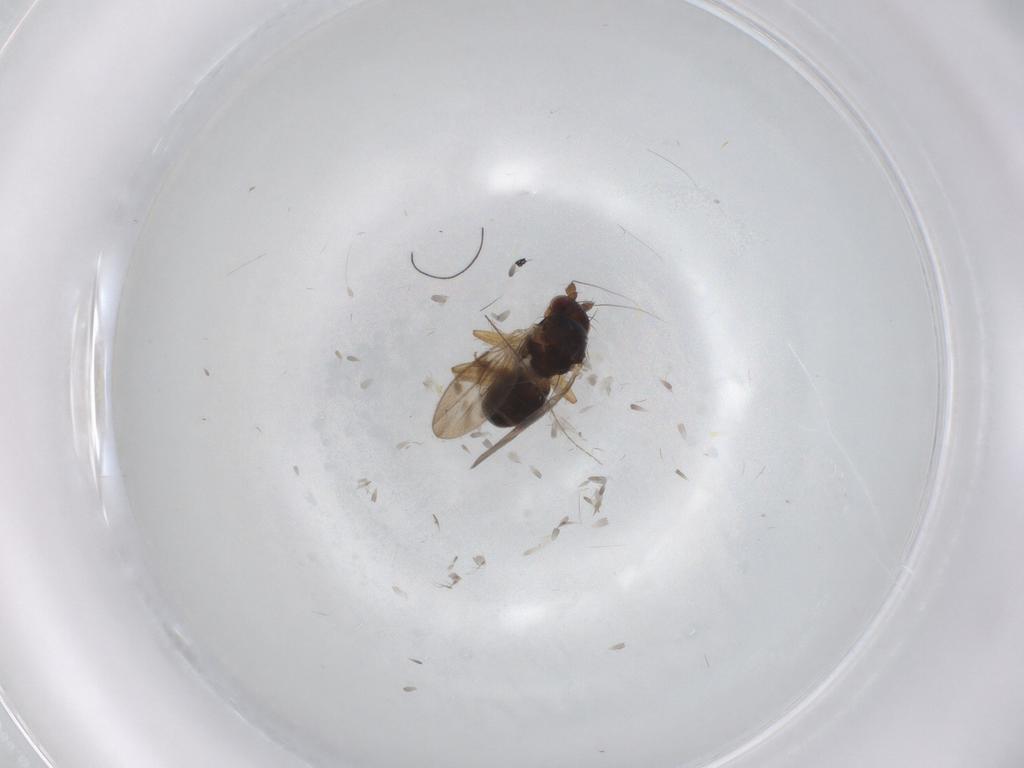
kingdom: Animalia
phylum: Arthropoda
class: Insecta
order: Diptera
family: Sphaeroceridae
